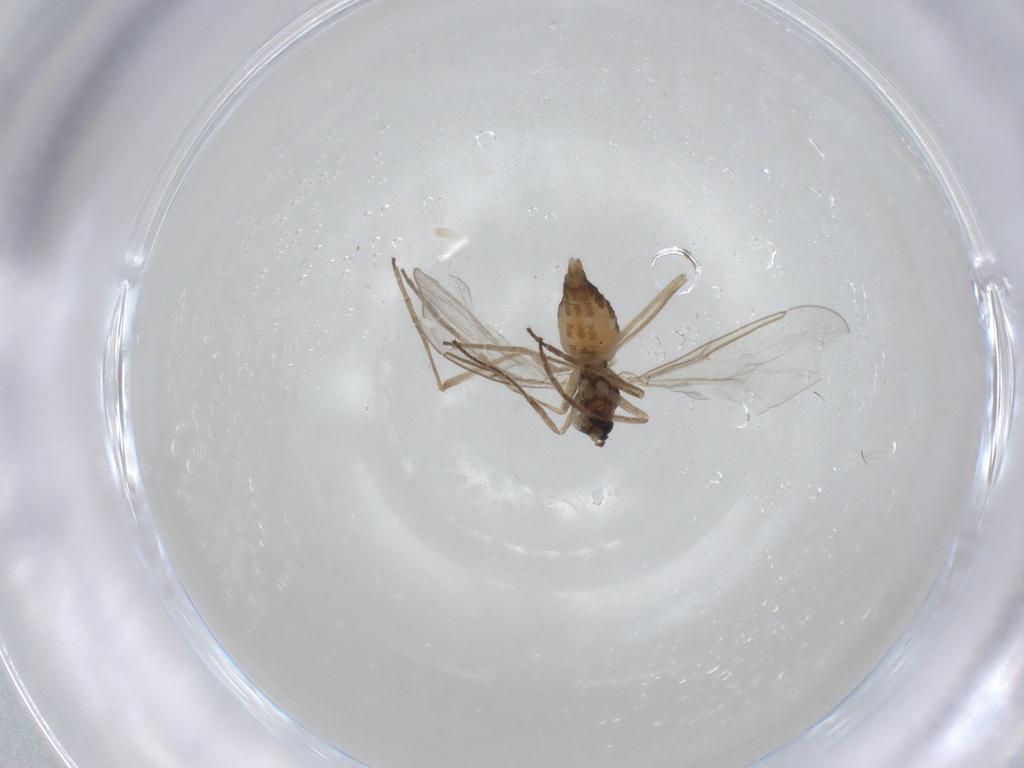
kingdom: Animalia
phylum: Arthropoda
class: Insecta
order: Diptera
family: Cecidomyiidae
